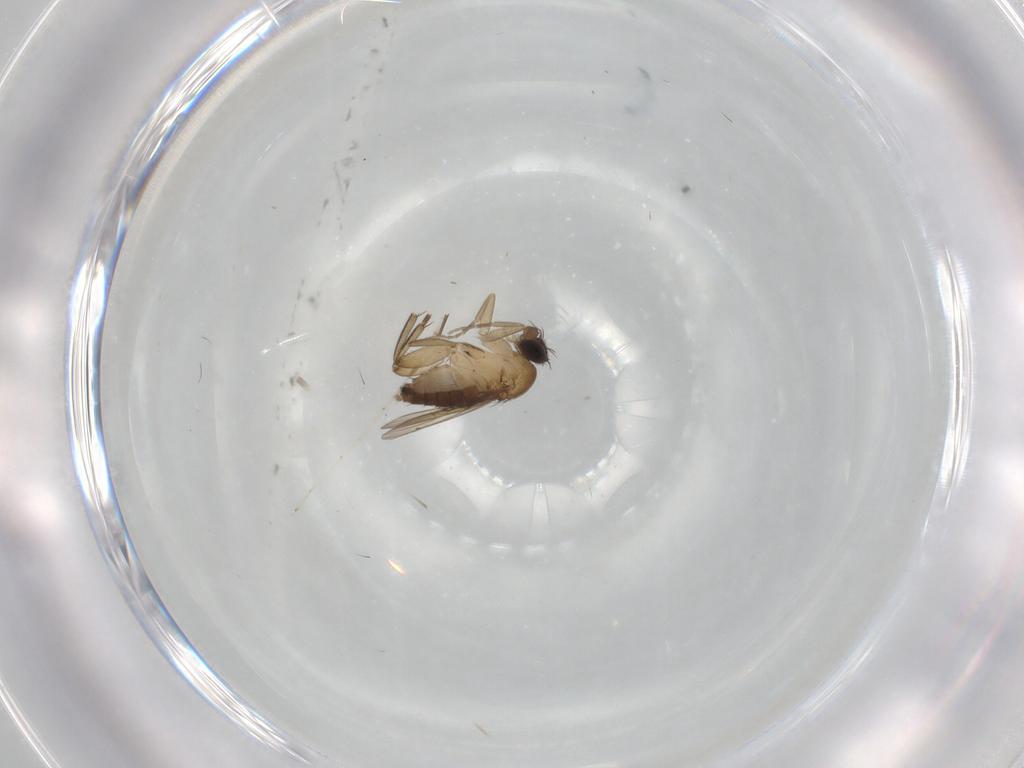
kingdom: Animalia
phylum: Arthropoda
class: Insecta
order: Diptera
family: Phoridae
